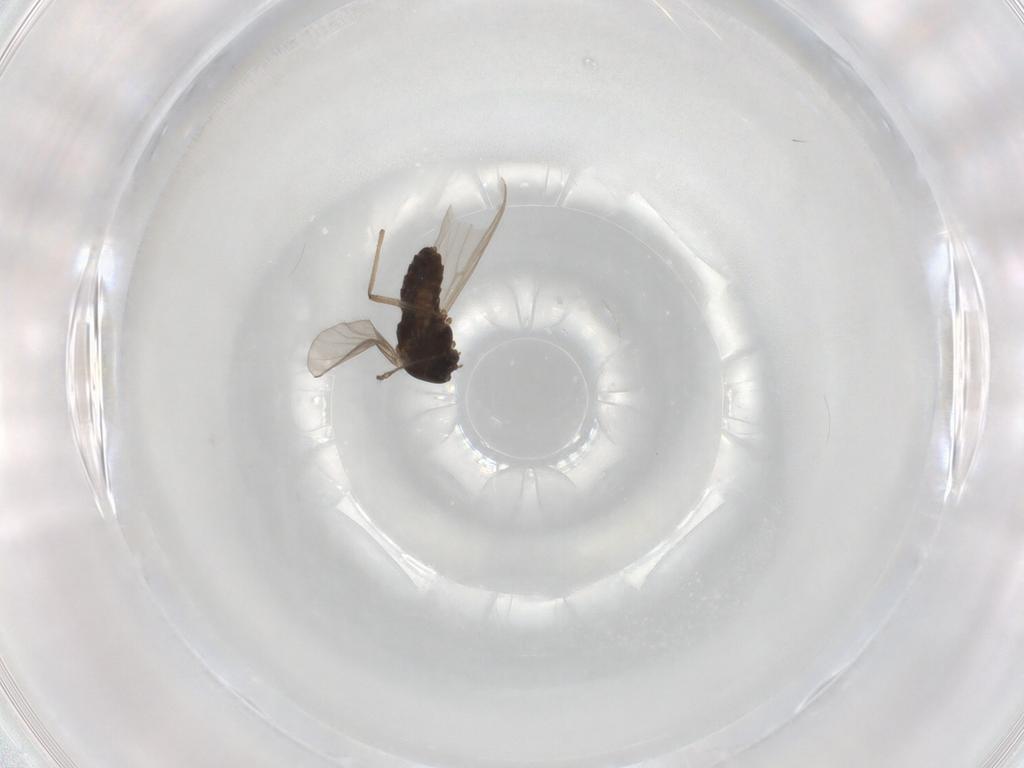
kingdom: Animalia
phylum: Arthropoda
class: Insecta
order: Diptera
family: Chironomidae
